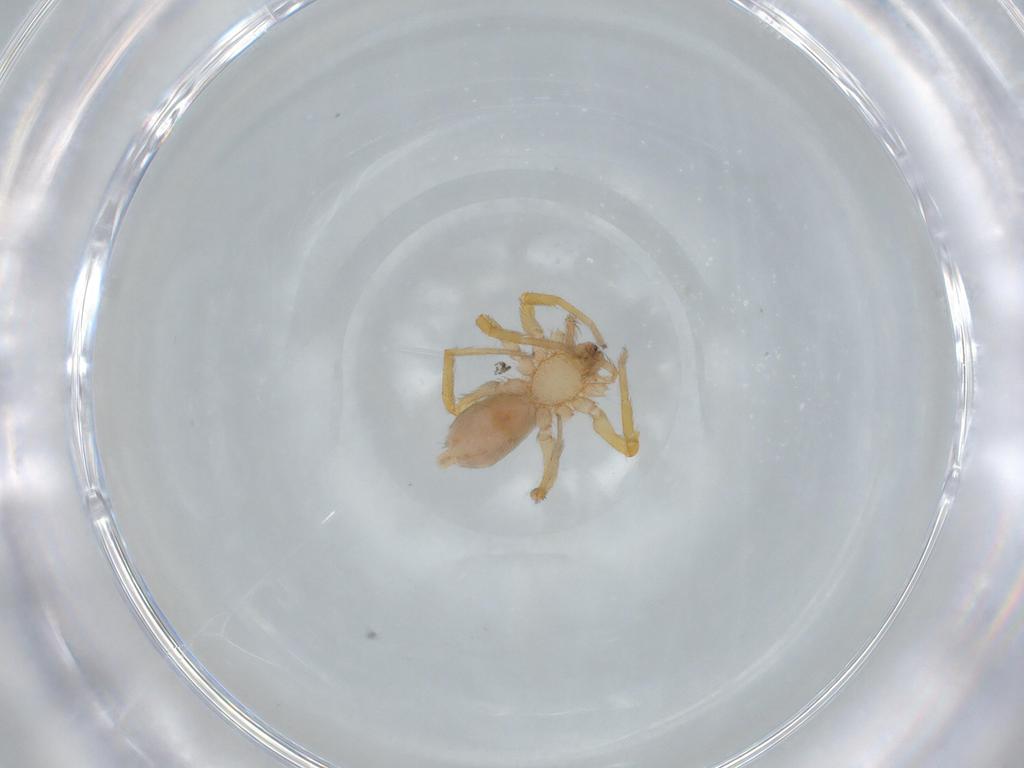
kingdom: Animalia
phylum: Arthropoda
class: Arachnida
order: Araneae
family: Oonopidae
